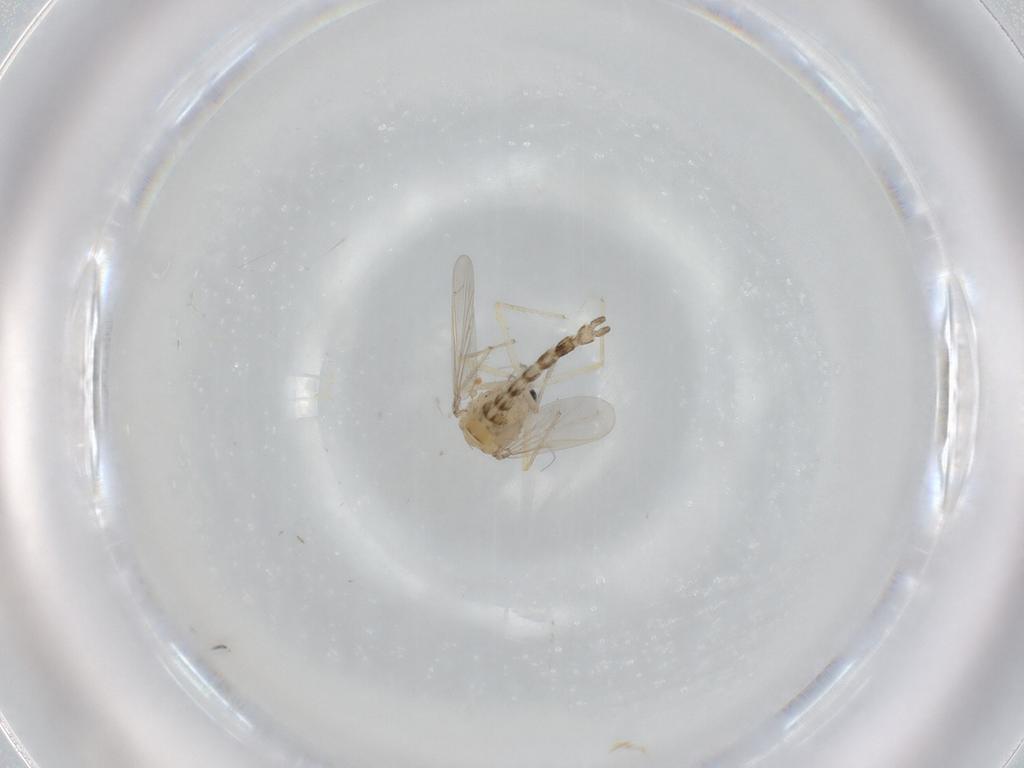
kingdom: Animalia
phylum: Arthropoda
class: Insecta
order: Diptera
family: Chironomidae
